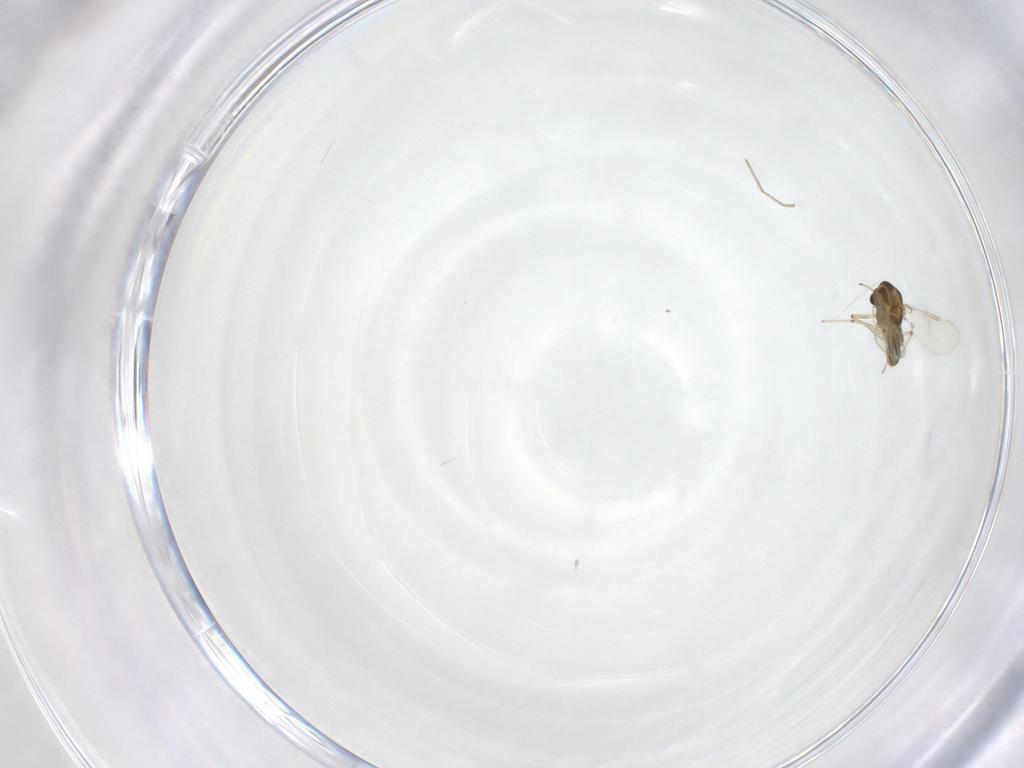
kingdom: Animalia
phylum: Arthropoda
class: Insecta
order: Diptera
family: Chironomidae
